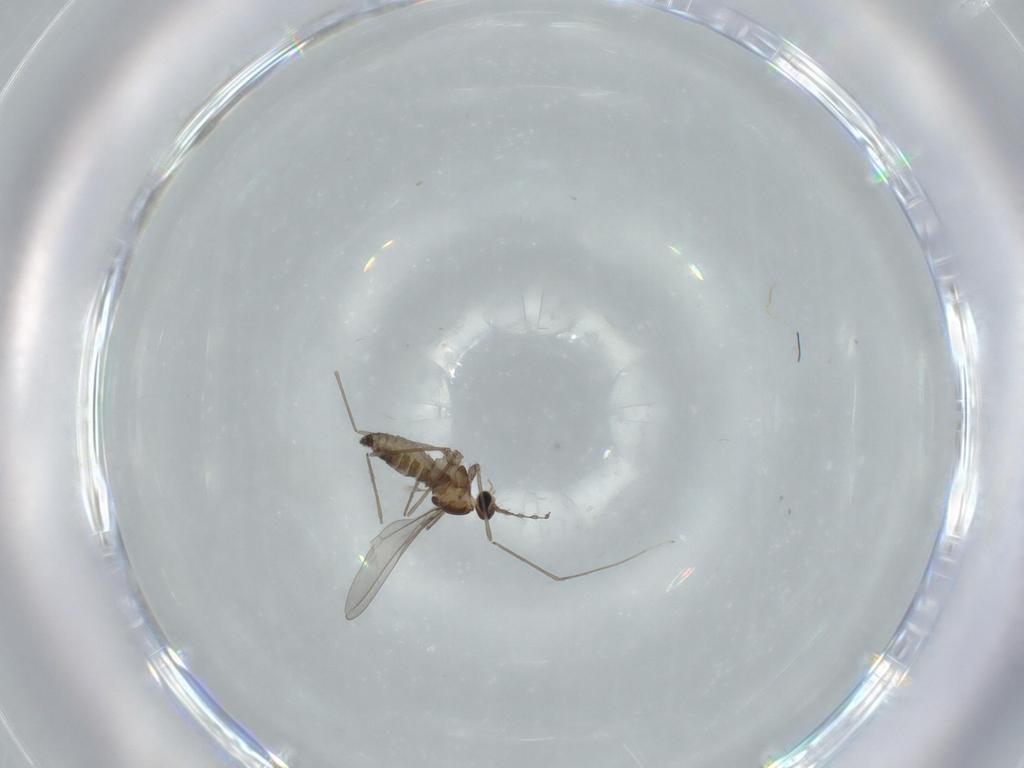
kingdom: Animalia
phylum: Arthropoda
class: Insecta
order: Diptera
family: Cecidomyiidae
